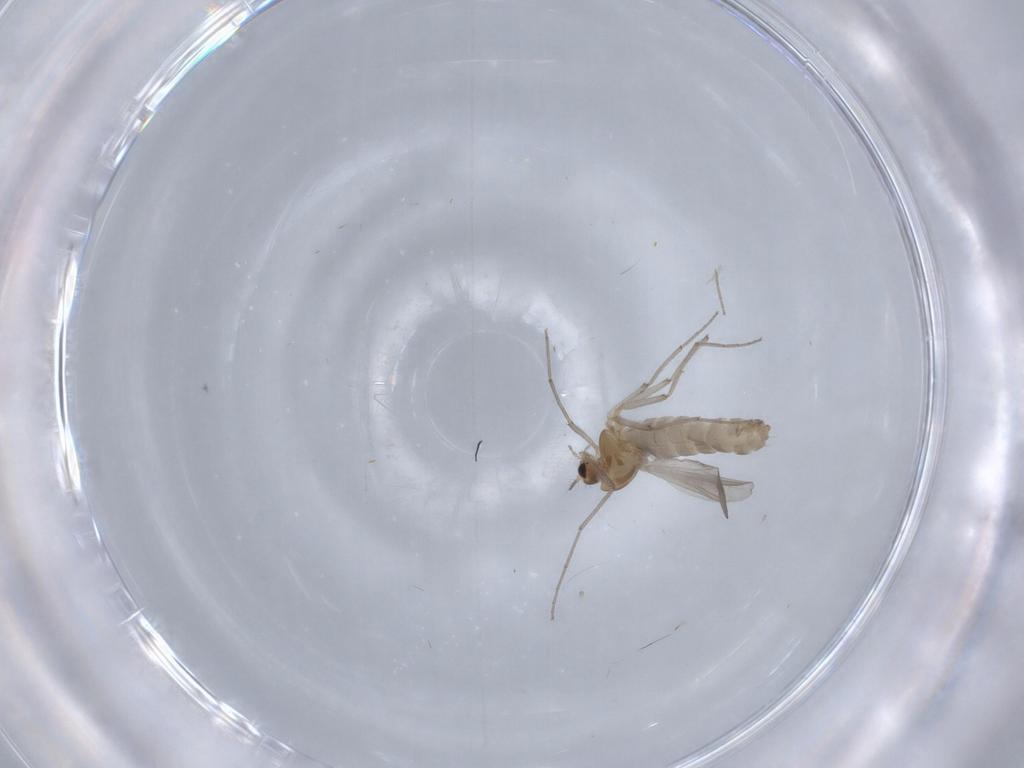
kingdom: Animalia
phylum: Arthropoda
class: Insecta
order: Diptera
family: Chironomidae
